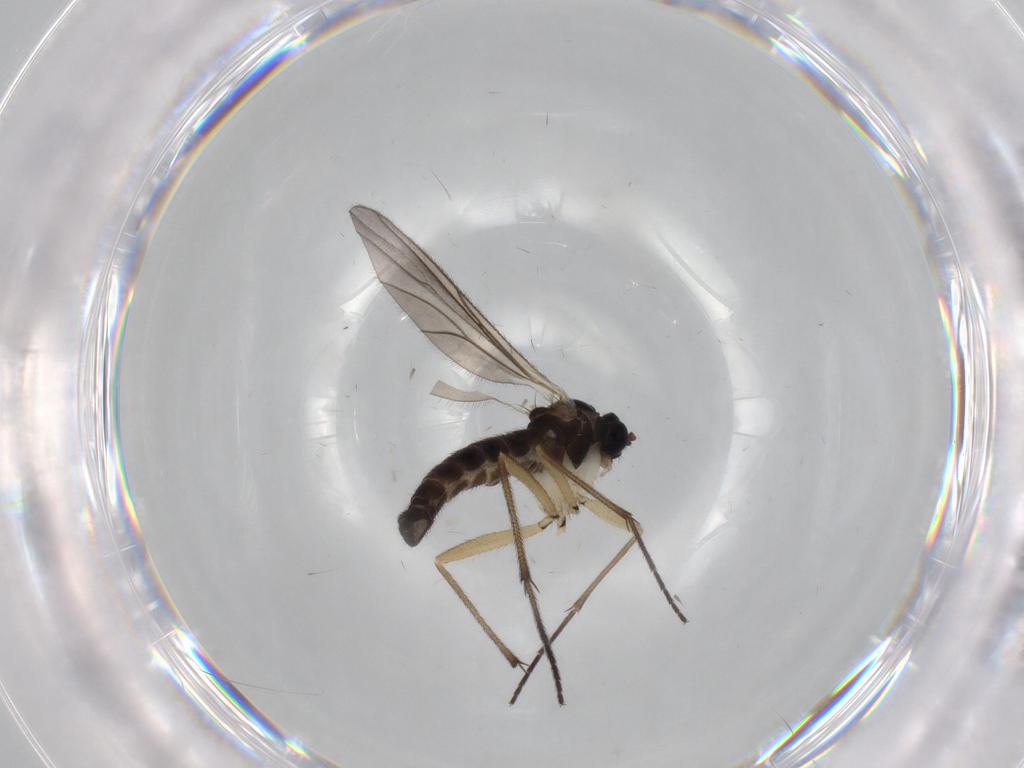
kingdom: Animalia
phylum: Arthropoda
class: Insecta
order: Diptera
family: Sciaridae
